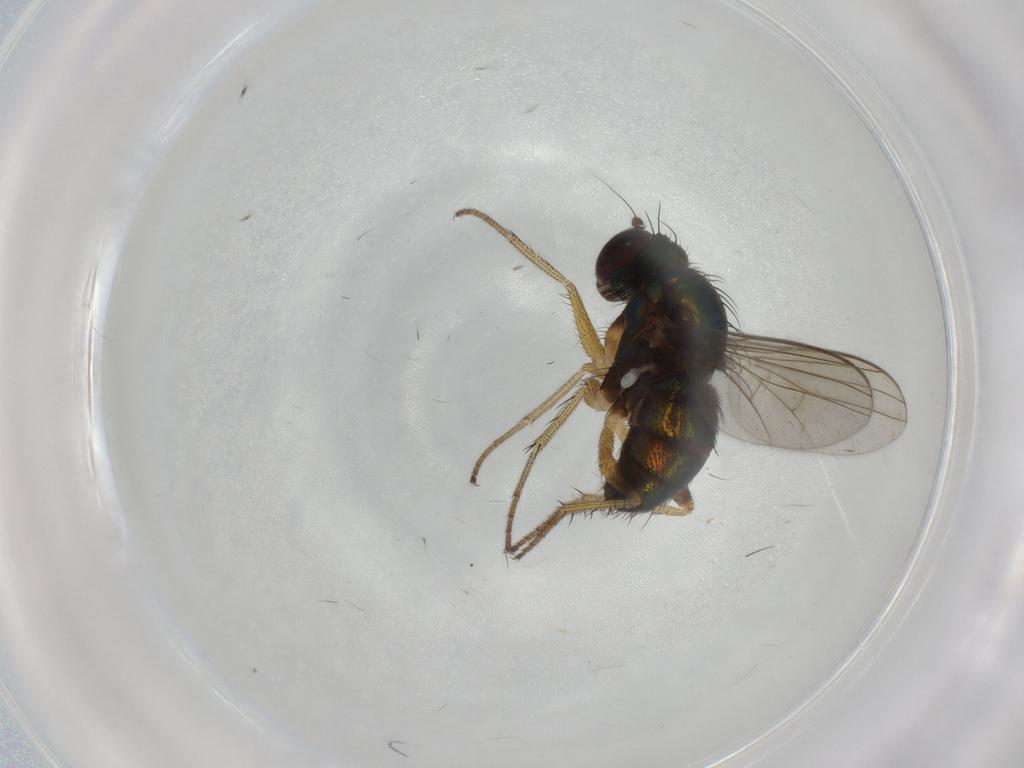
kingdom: Animalia
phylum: Arthropoda
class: Insecta
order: Diptera
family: Dolichopodidae
